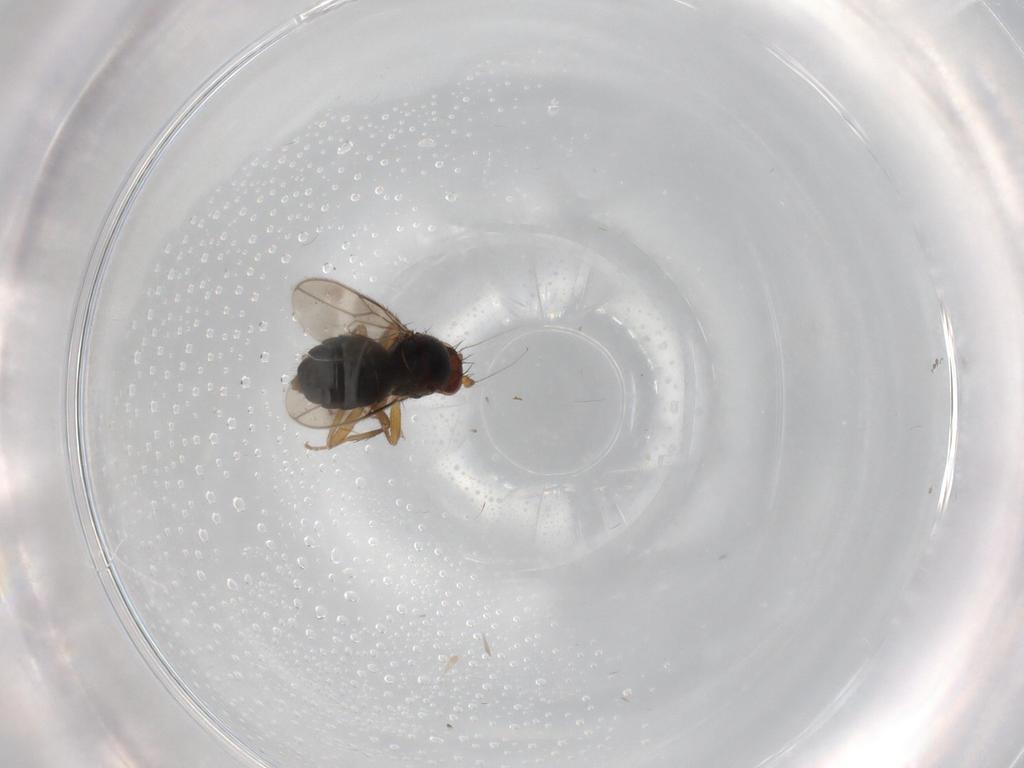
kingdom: Animalia
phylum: Arthropoda
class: Insecta
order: Diptera
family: Sphaeroceridae
